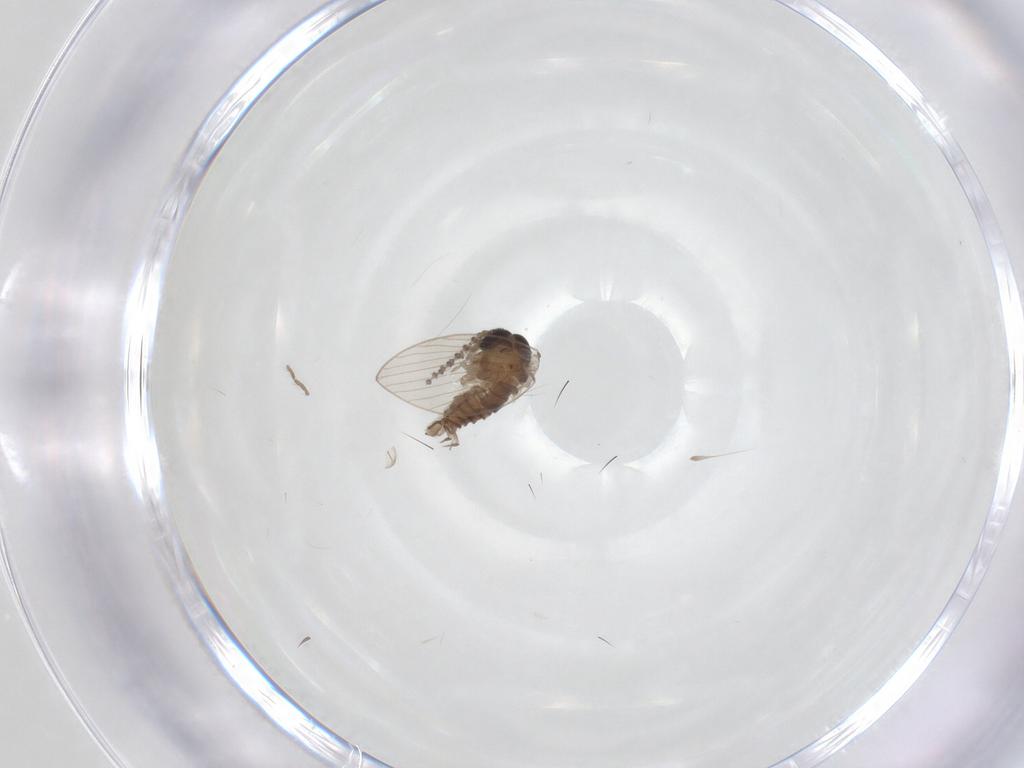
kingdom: Animalia
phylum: Arthropoda
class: Insecta
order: Diptera
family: Psychodidae
